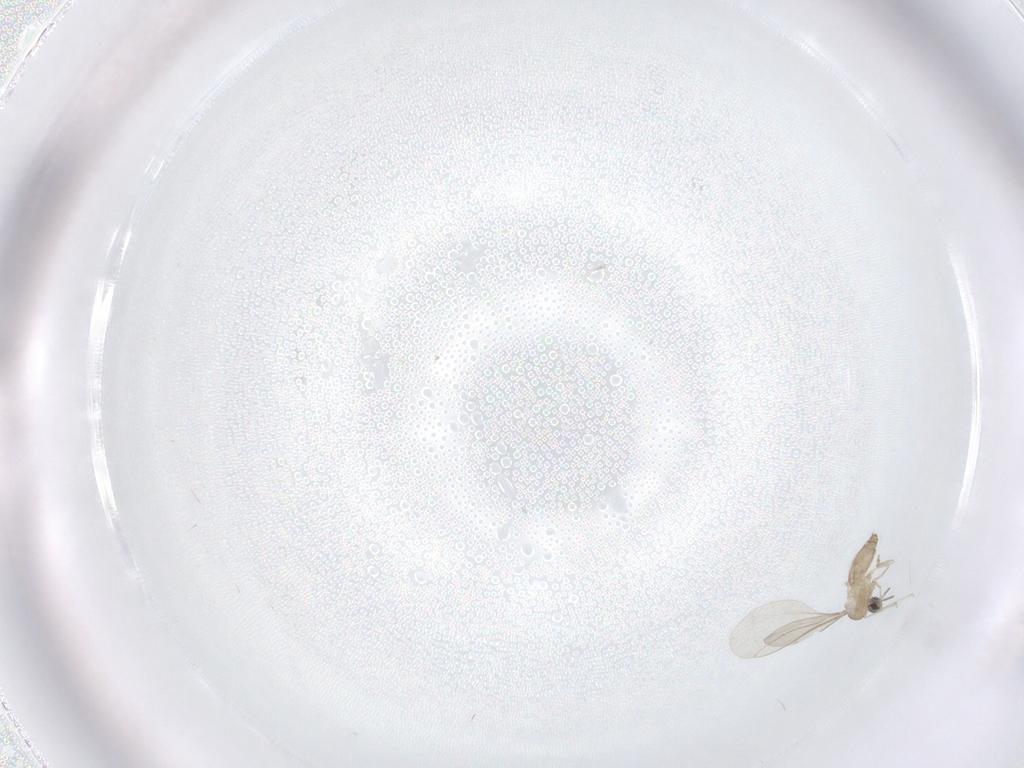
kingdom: Animalia
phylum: Arthropoda
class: Insecta
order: Diptera
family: Cecidomyiidae
